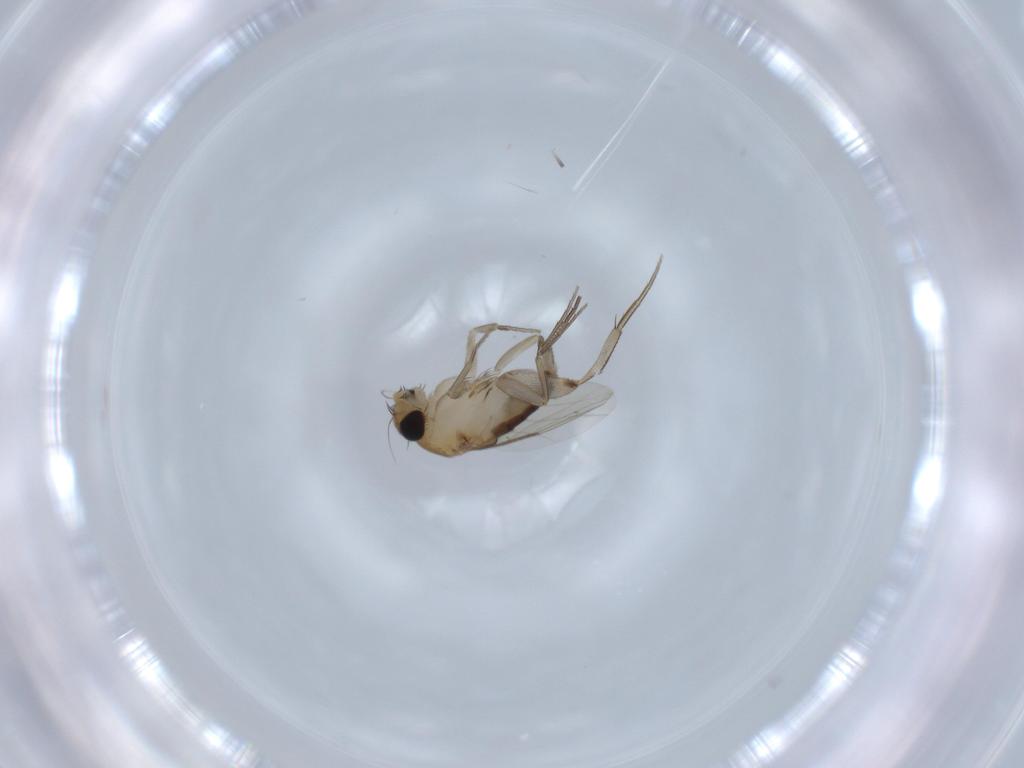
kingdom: Animalia
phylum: Arthropoda
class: Insecta
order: Diptera
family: Phoridae
